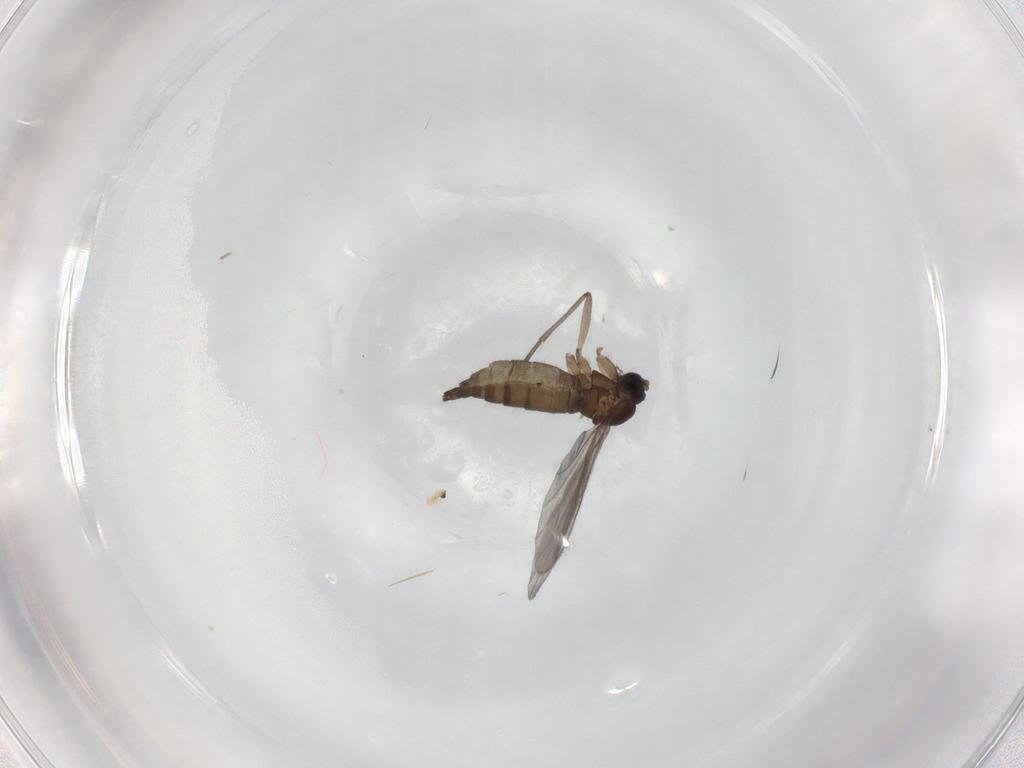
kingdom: Animalia
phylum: Arthropoda
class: Insecta
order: Diptera
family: Sciaridae
